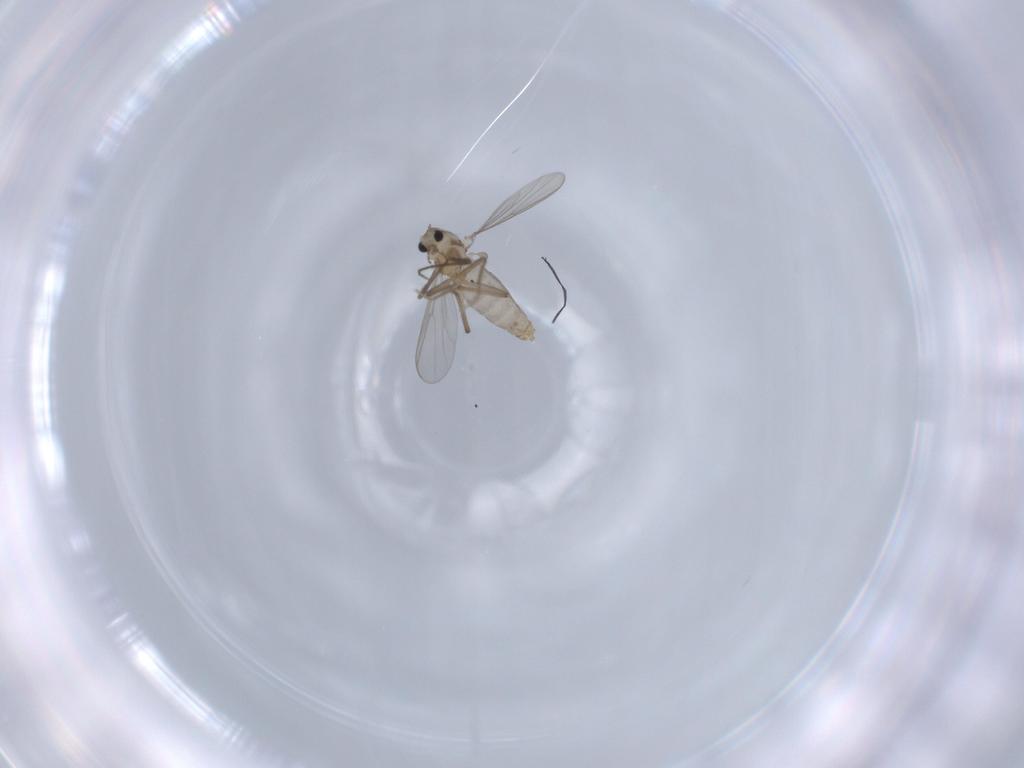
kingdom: Animalia
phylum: Arthropoda
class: Insecta
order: Diptera
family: Chironomidae
